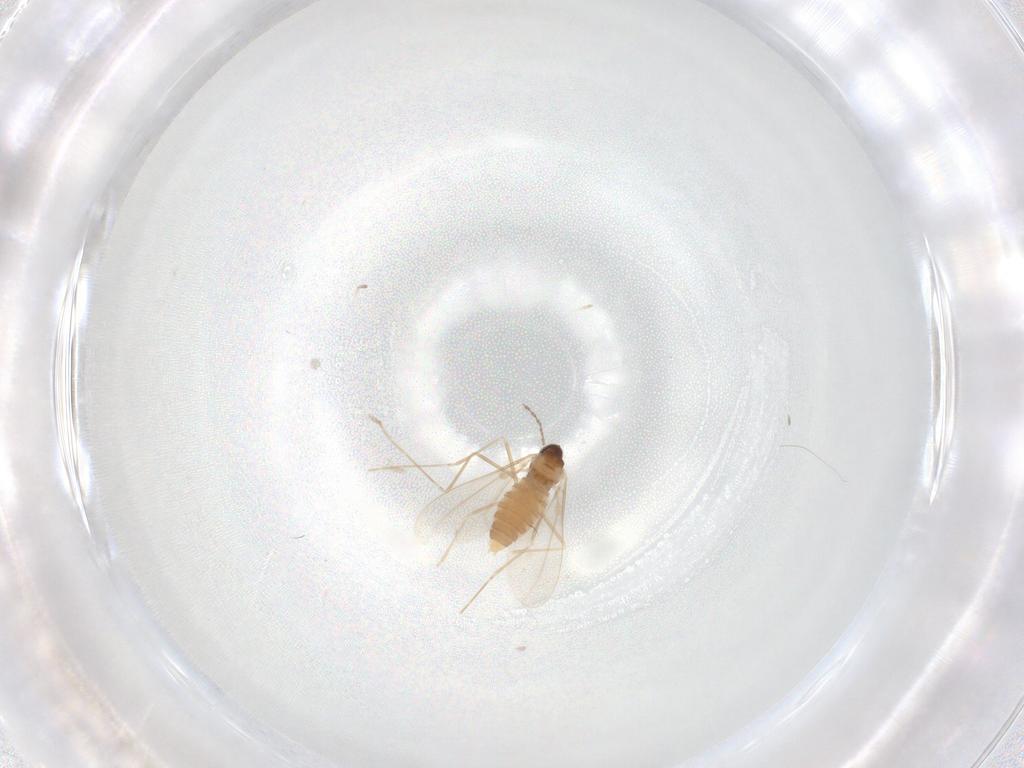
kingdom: Animalia
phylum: Arthropoda
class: Insecta
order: Diptera
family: Cecidomyiidae
